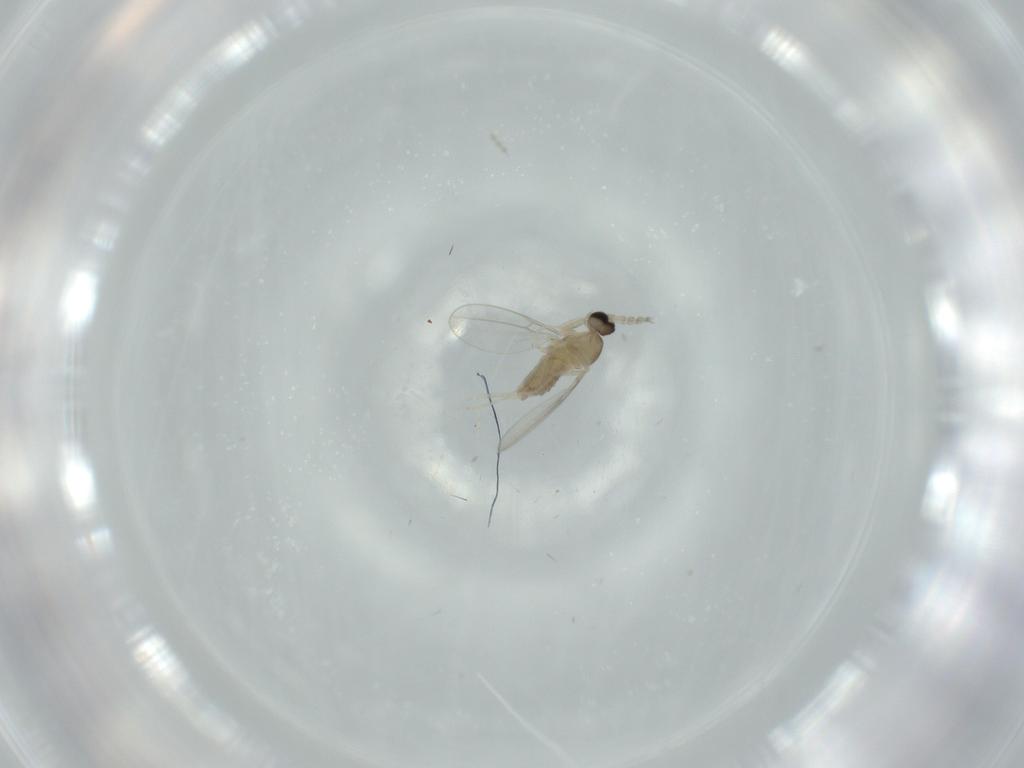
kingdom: Animalia
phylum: Arthropoda
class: Insecta
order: Diptera
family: Cecidomyiidae
